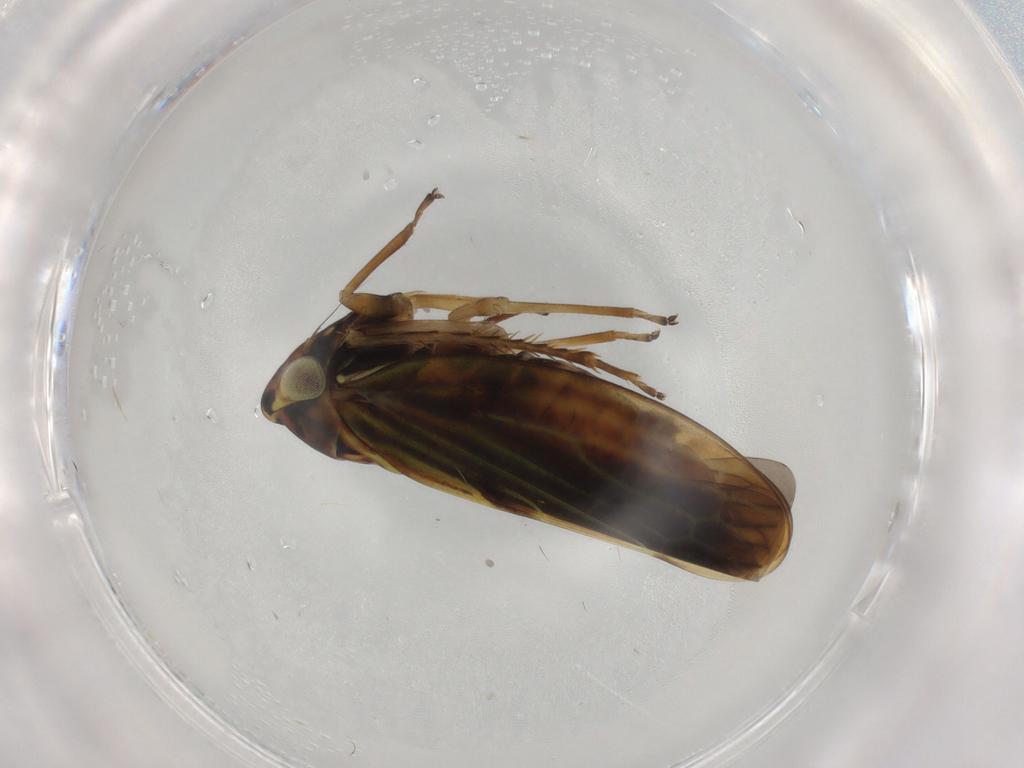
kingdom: Animalia
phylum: Arthropoda
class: Insecta
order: Hemiptera
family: Cicadellidae
